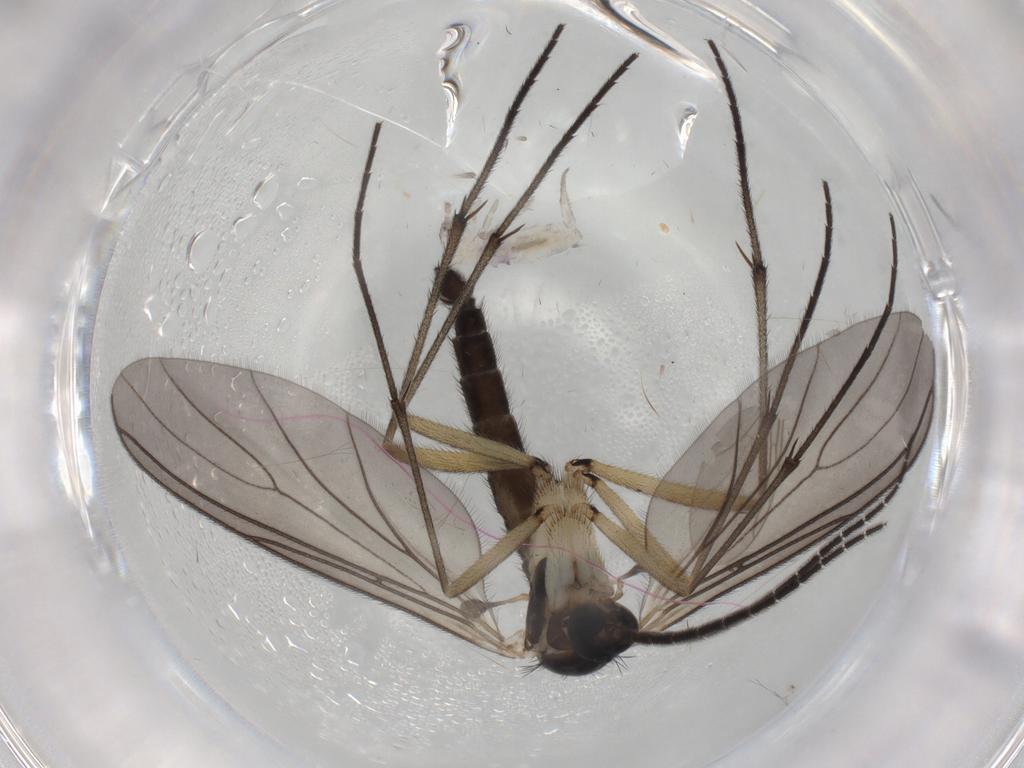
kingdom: Animalia
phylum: Arthropoda
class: Insecta
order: Diptera
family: Sciaridae
